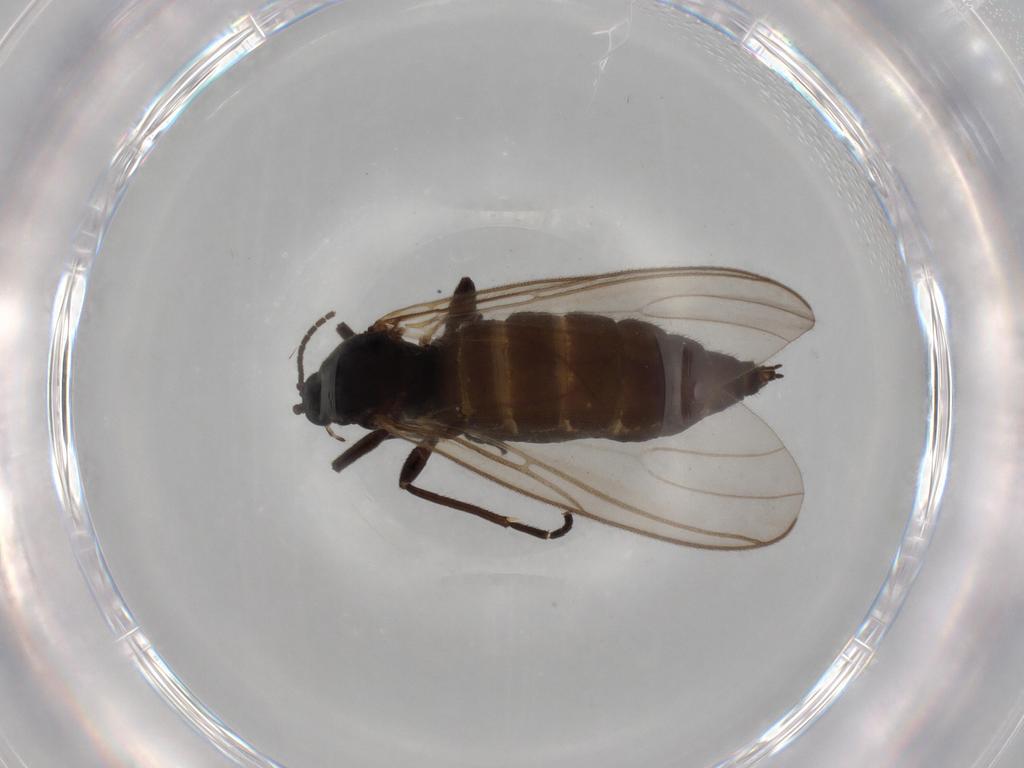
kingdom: Animalia
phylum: Arthropoda
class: Insecta
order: Diptera
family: Sciaridae
